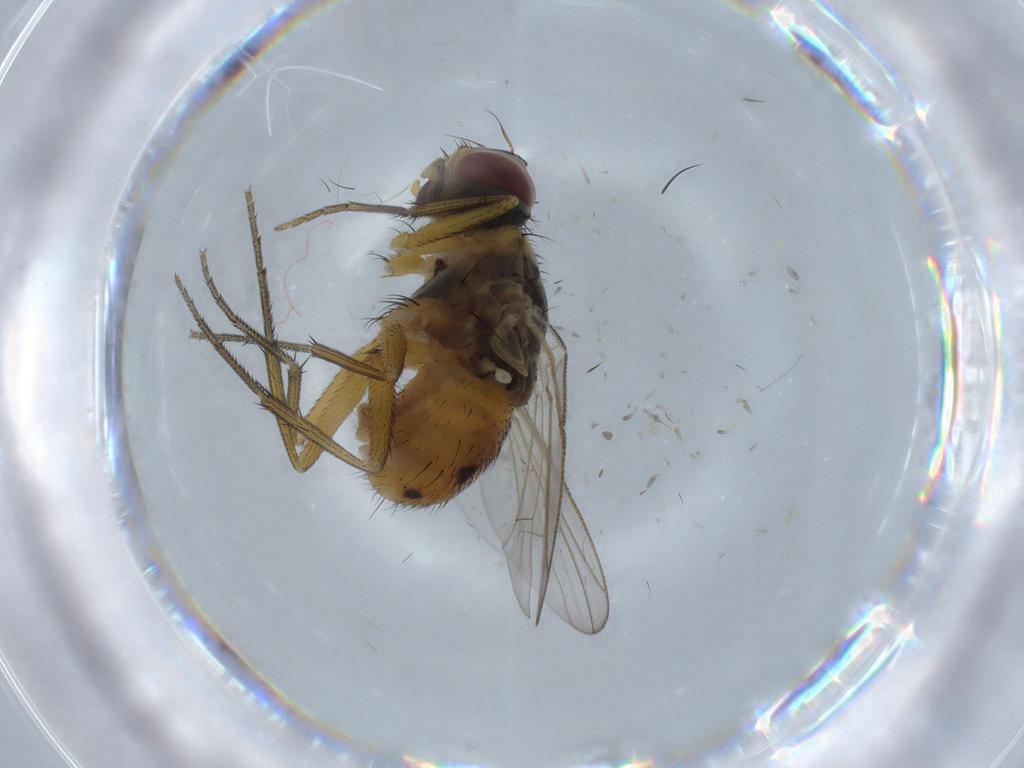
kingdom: Animalia
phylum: Arthropoda
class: Insecta
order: Diptera
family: Muscidae
